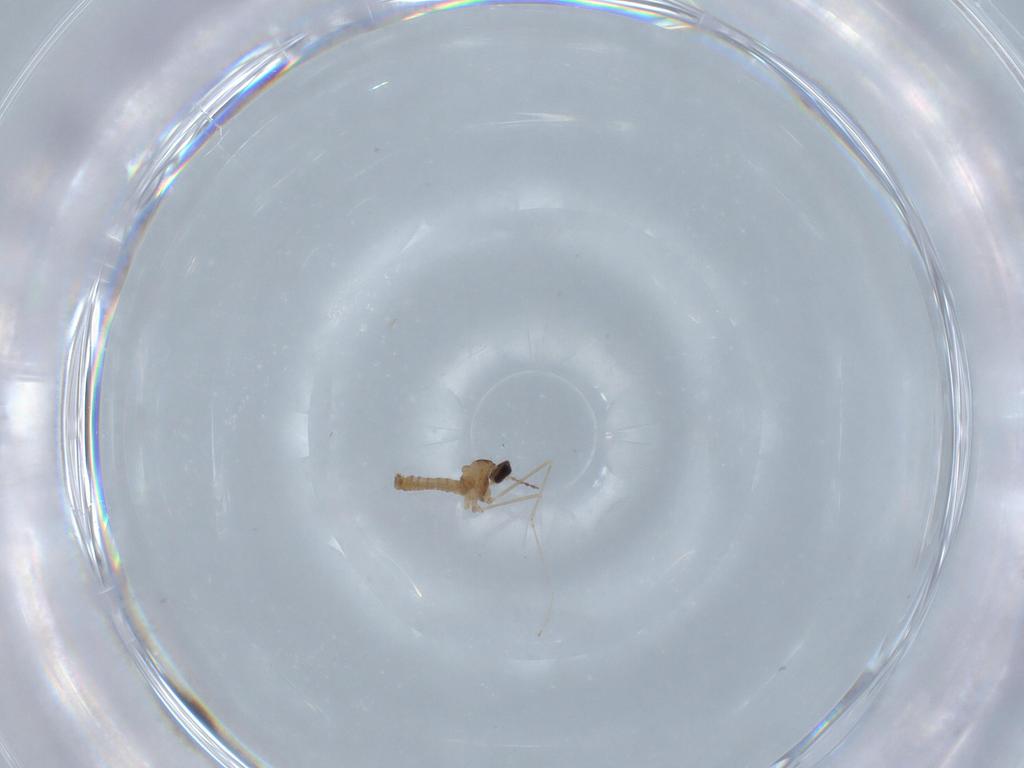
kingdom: Animalia
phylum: Arthropoda
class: Insecta
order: Diptera
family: Cecidomyiidae
